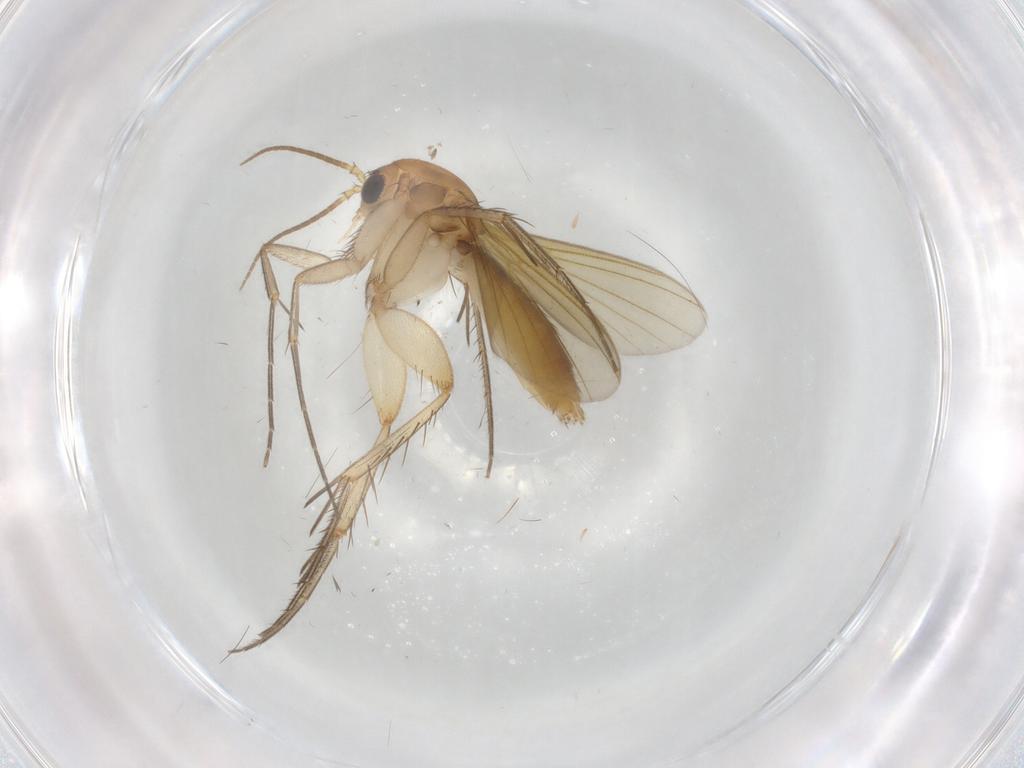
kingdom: Animalia
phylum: Arthropoda
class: Insecta
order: Diptera
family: Mycetophilidae
